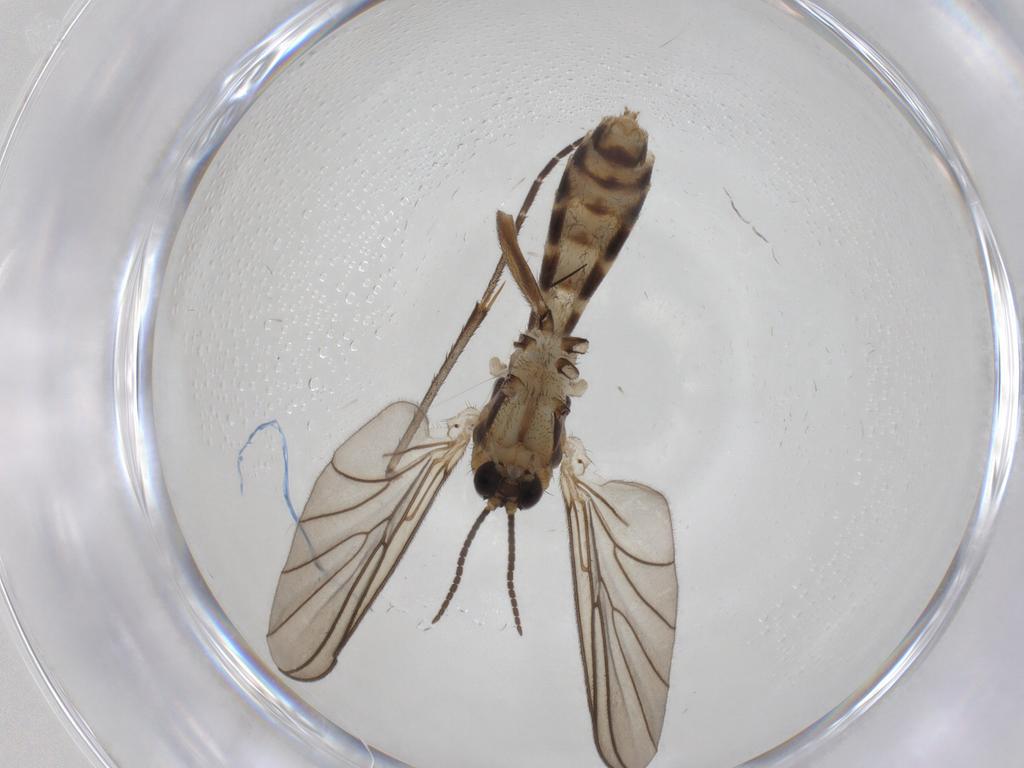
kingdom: Animalia
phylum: Arthropoda
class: Insecta
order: Diptera
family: Mycetophilidae
